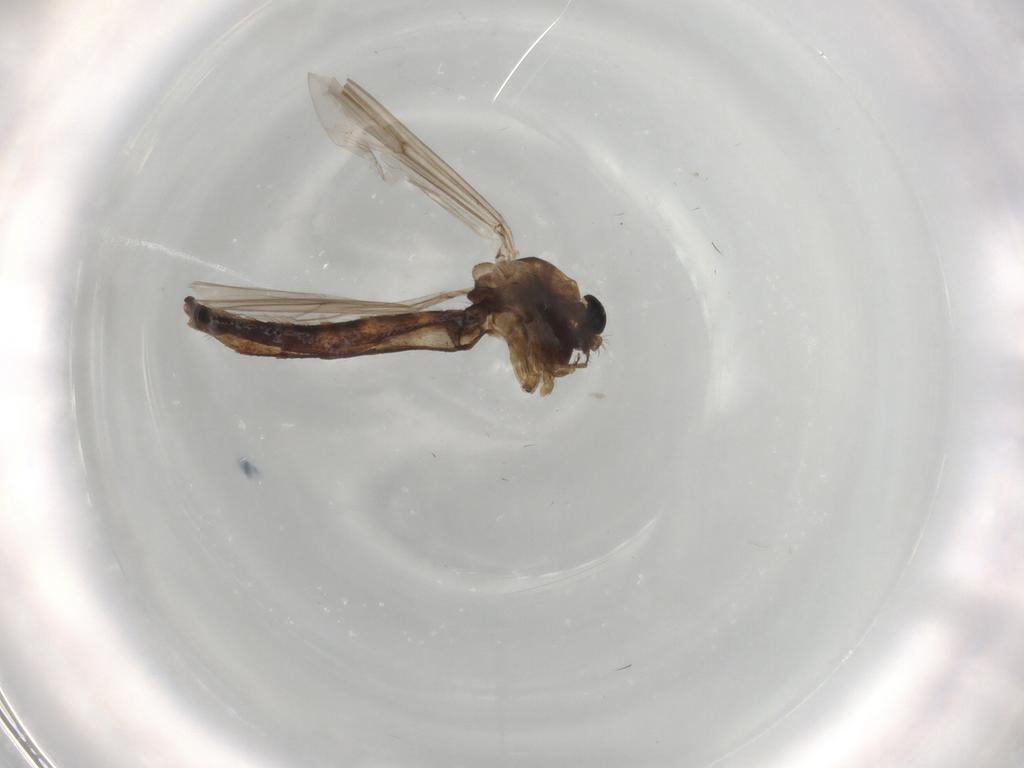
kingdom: Animalia
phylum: Arthropoda
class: Insecta
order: Diptera
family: Chironomidae
